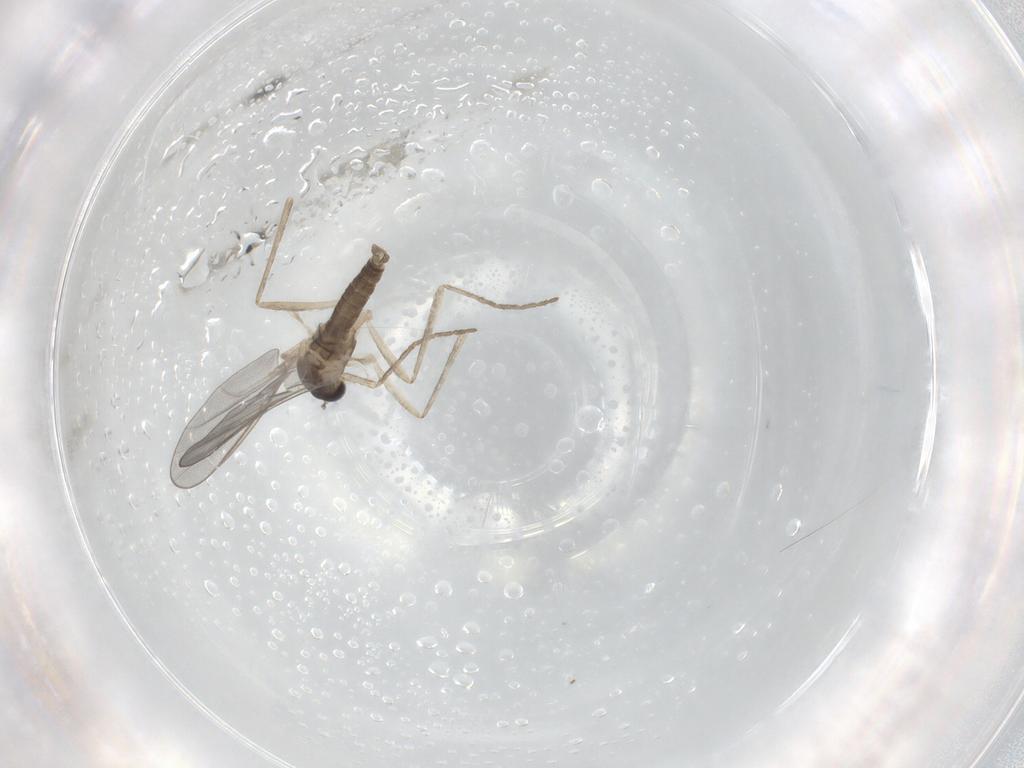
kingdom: Animalia
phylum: Arthropoda
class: Insecta
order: Diptera
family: Cecidomyiidae
